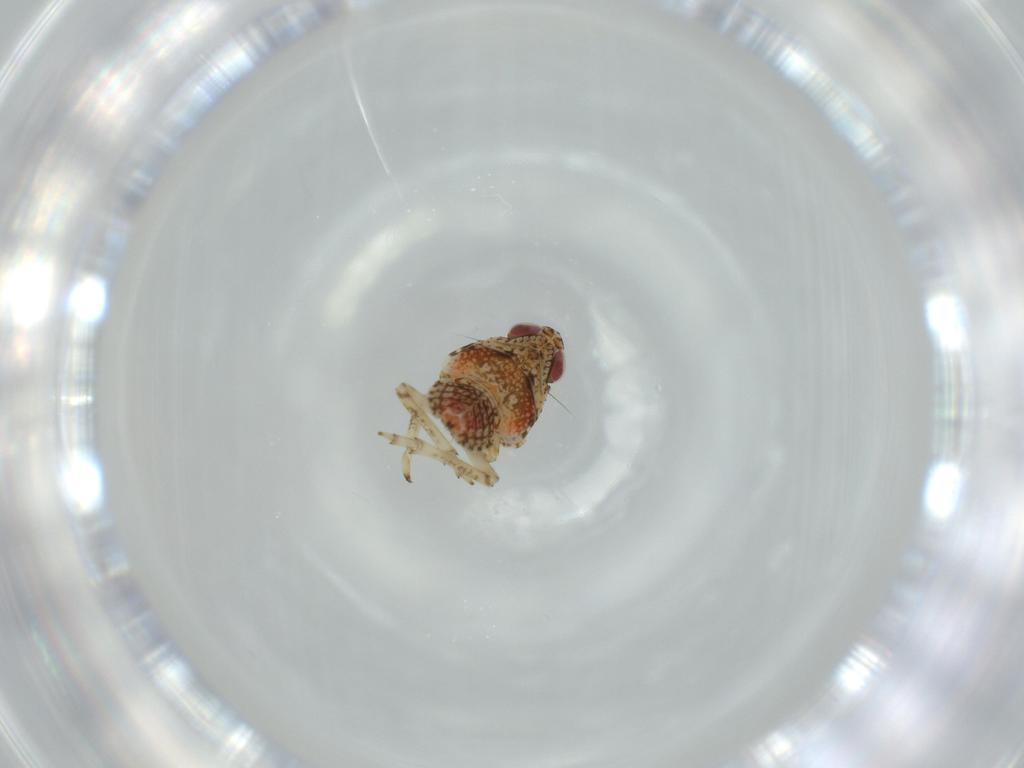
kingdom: Animalia
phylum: Arthropoda
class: Insecta
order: Hemiptera
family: Issidae
